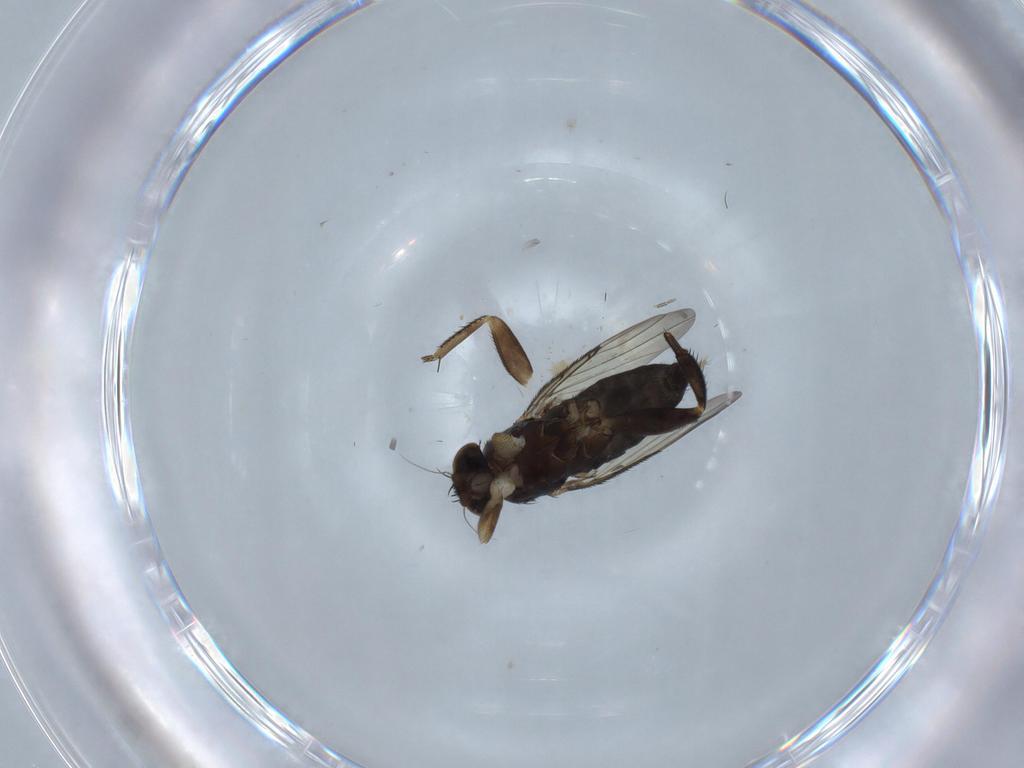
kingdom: Animalia
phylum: Arthropoda
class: Insecta
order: Diptera
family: Phoridae
